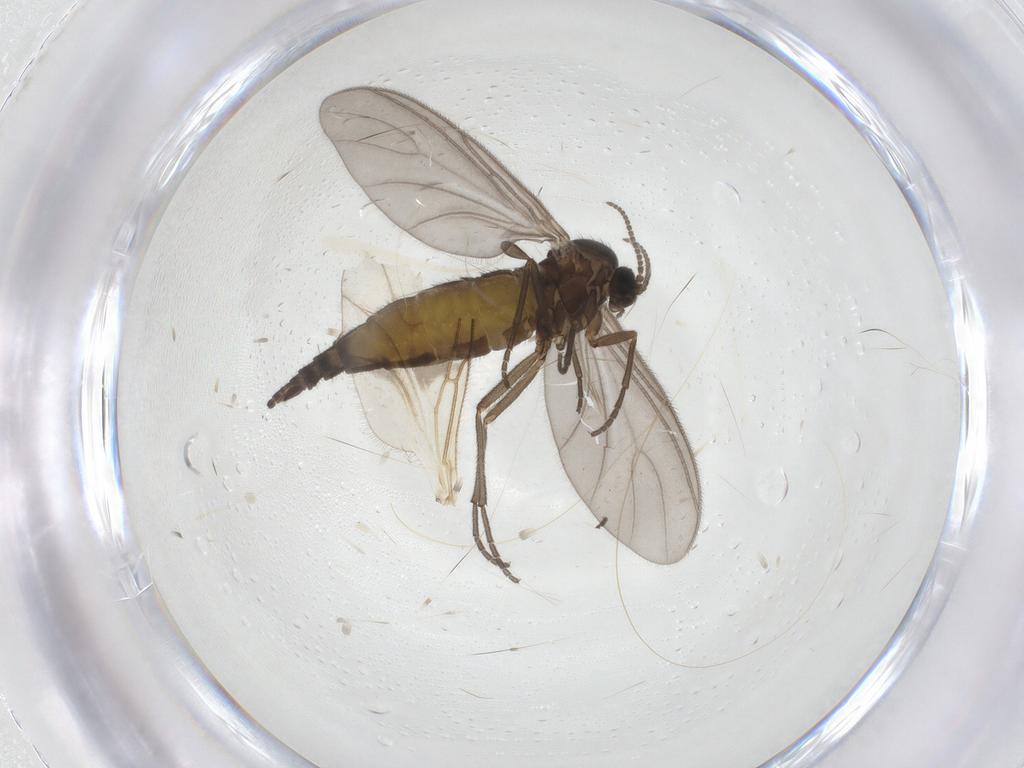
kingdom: Animalia
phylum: Arthropoda
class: Insecta
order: Diptera
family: Sciaridae
